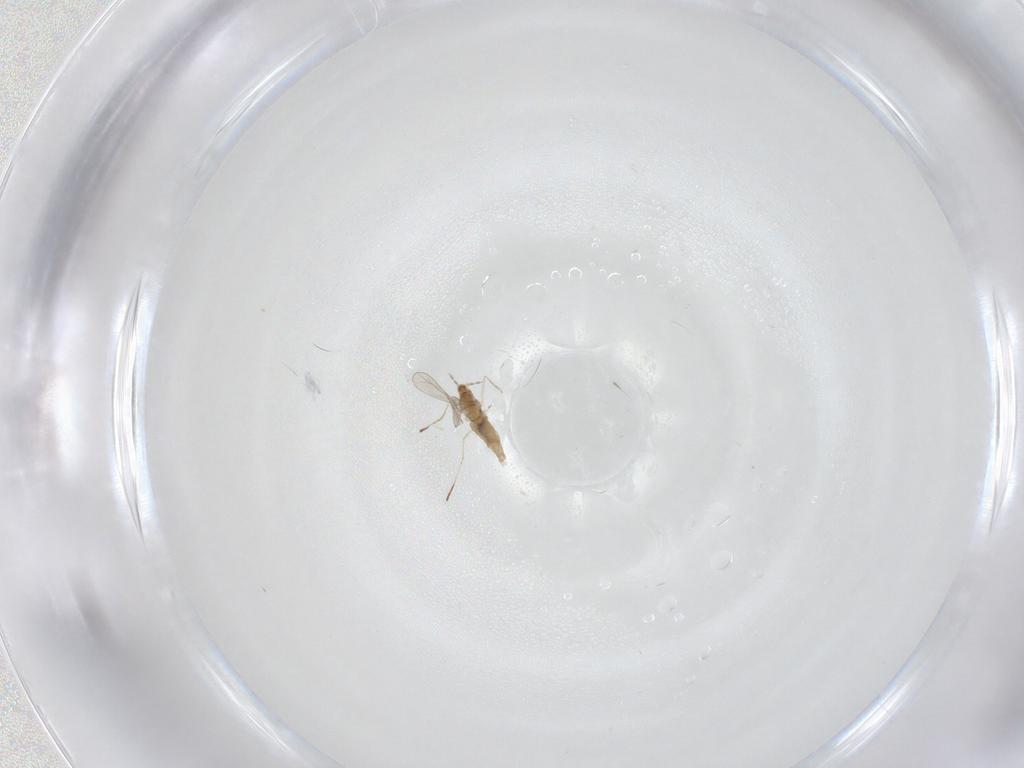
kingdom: Animalia
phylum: Arthropoda
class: Insecta
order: Diptera
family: Cecidomyiidae
